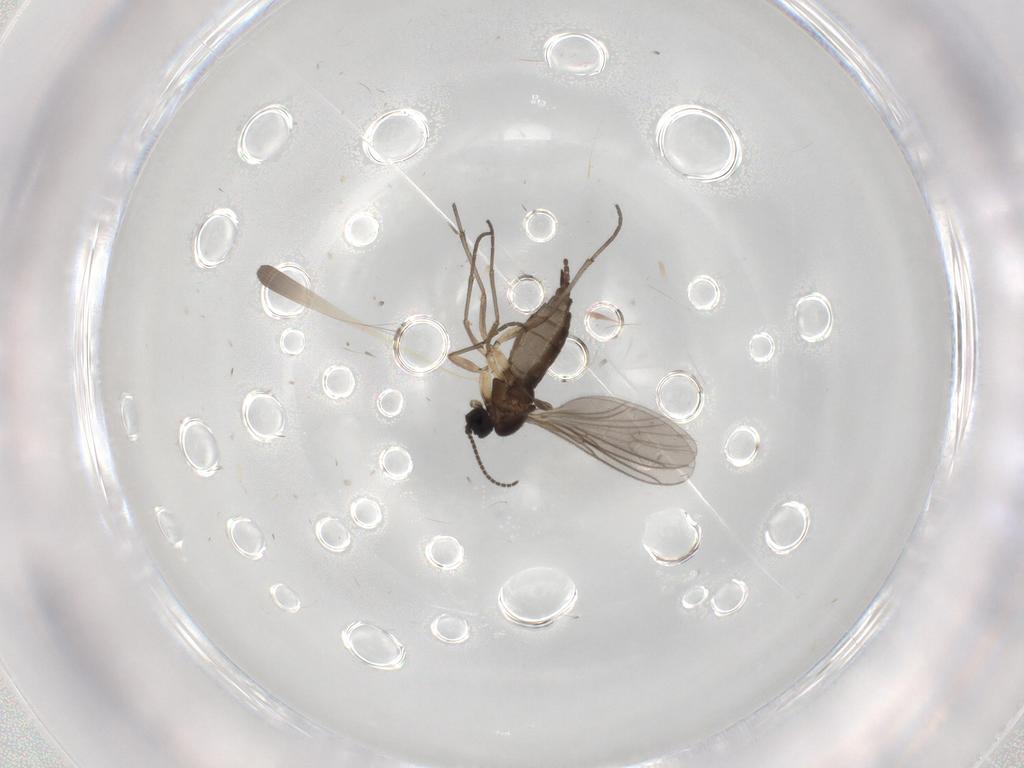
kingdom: Animalia
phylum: Arthropoda
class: Insecta
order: Diptera
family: Sciaridae
